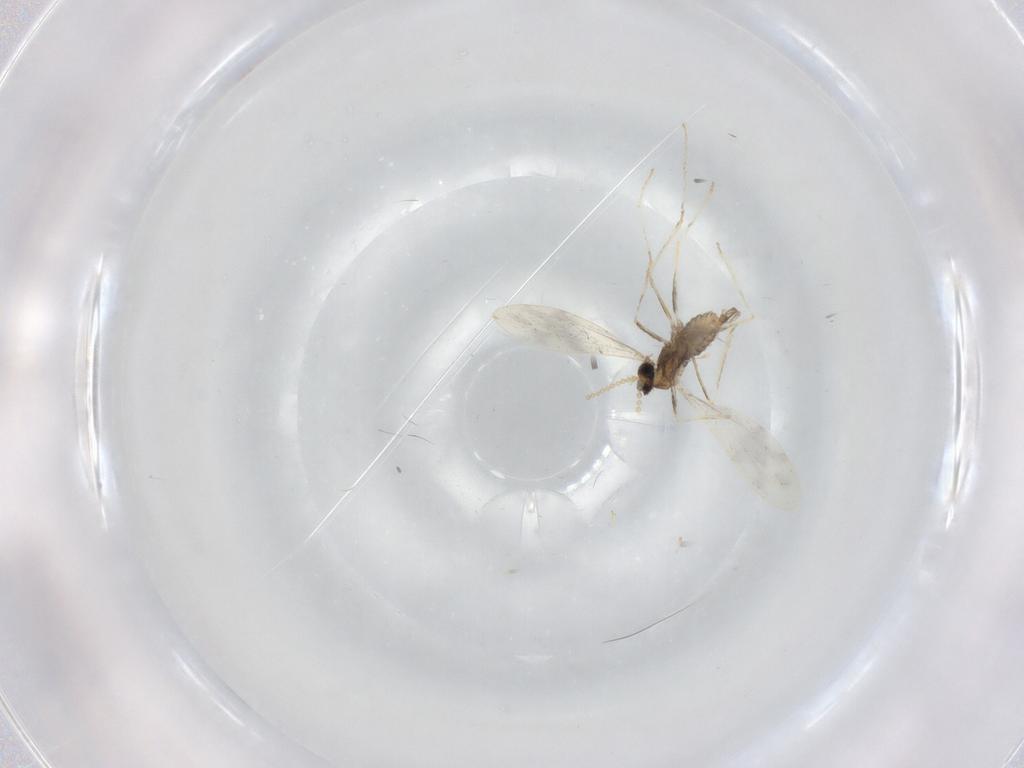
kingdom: Animalia
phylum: Arthropoda
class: Insecta
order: Diptera
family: Cecidomyiidae
